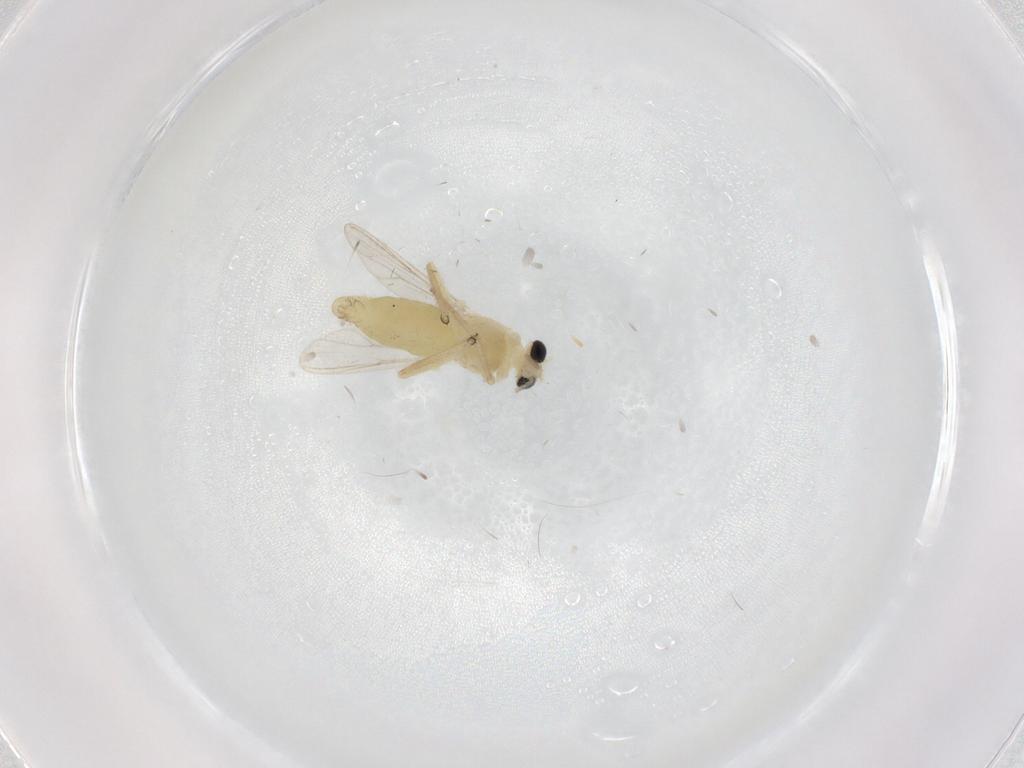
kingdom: Animalia
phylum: Arthropoda
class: Insecta
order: Diptera
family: Chironomidae
